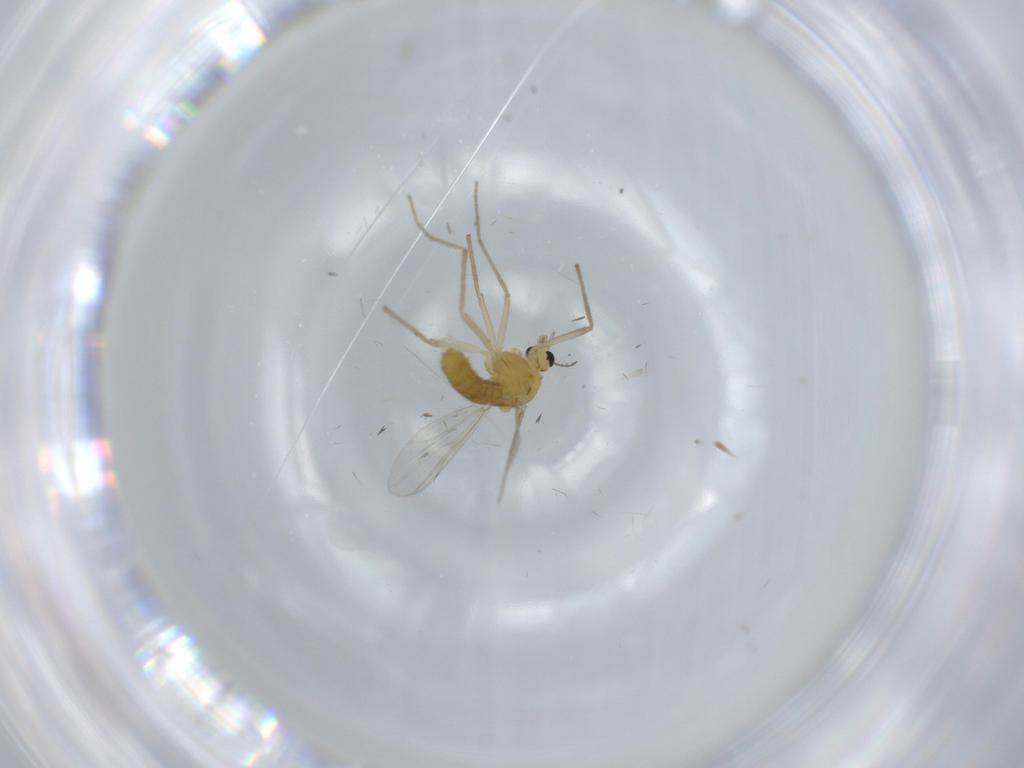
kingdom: Animalia
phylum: Arthropoda
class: Insecta
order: Diptera
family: Chironomidae
